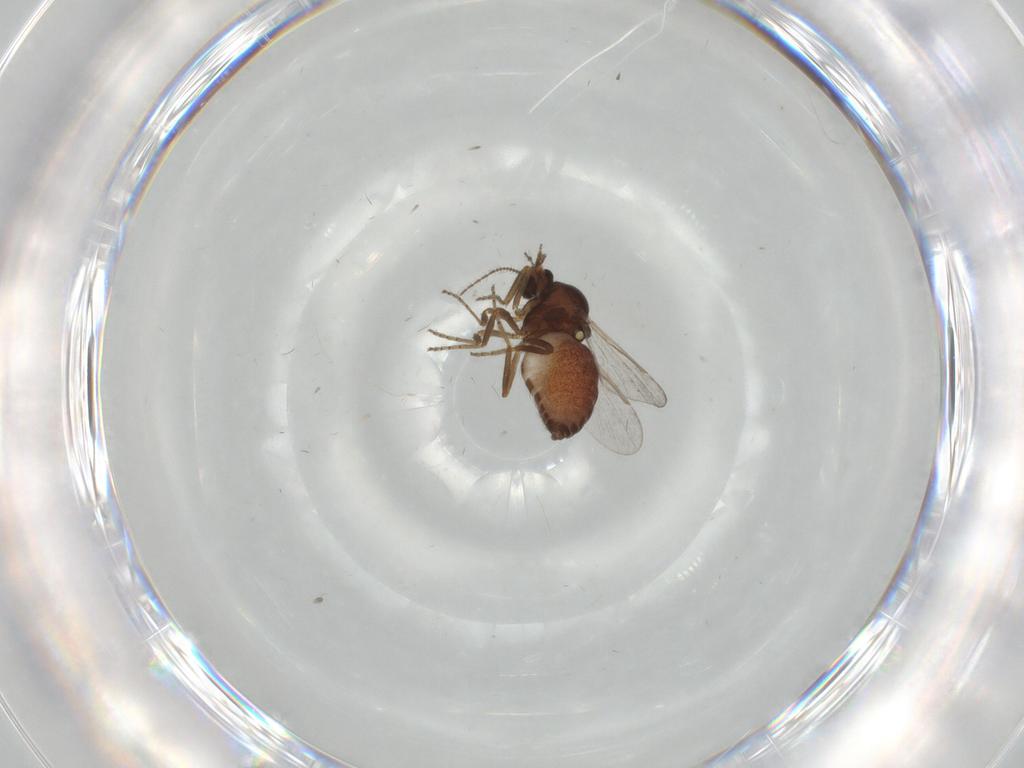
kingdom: Animalia
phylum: Arthropoda
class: Insecta
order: Diptera
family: Ceratopogonidae
